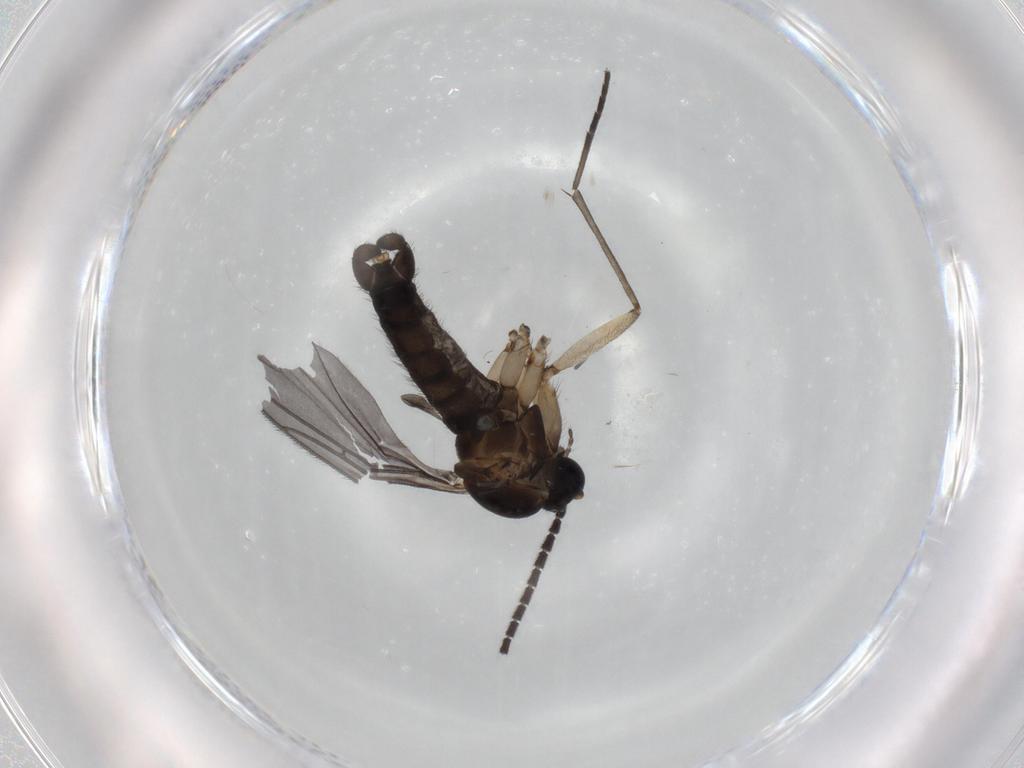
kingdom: Animalia
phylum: Arthropoda
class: Insecta
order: Diptera
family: Sciaridae
